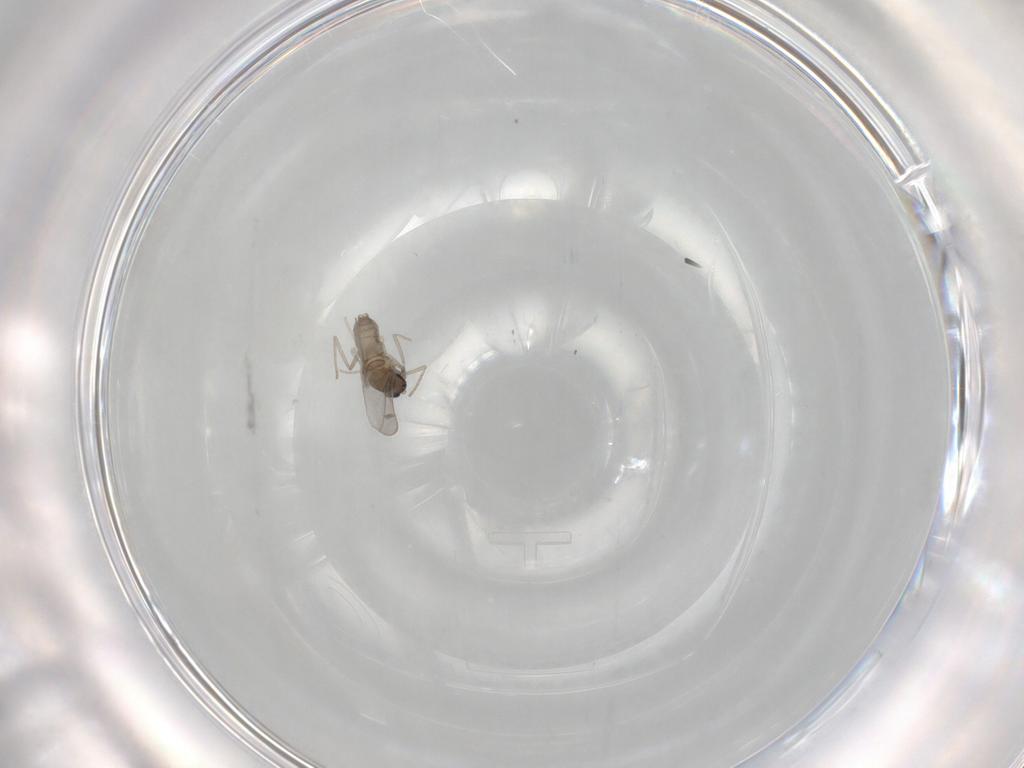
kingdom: Animalia
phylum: Arthropoda
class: Insecta
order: Diptera
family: Cecidomyiidae
